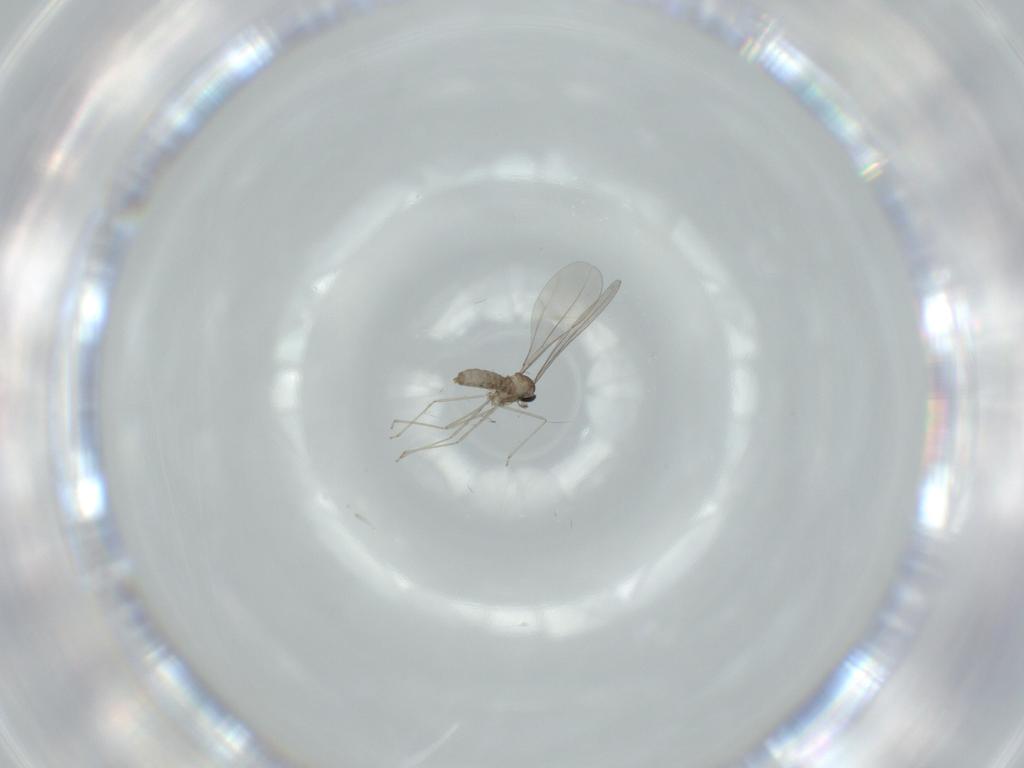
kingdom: Animalia
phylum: Arthropoda
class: Insecta
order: Diptera
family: Cecidomyiidae
